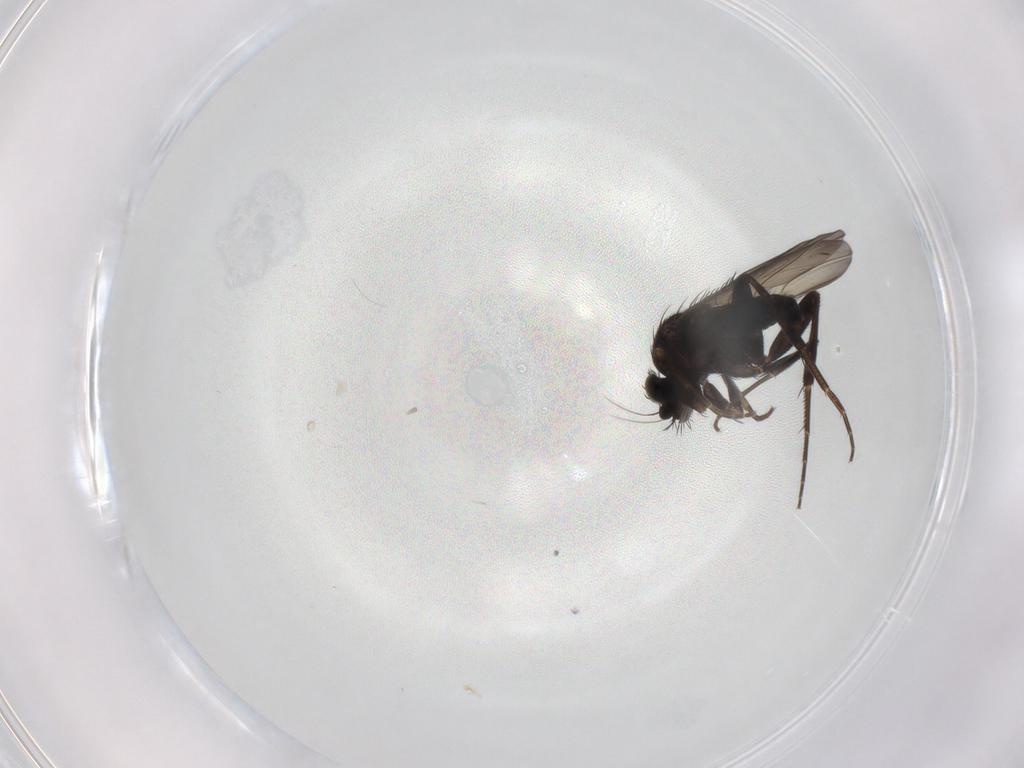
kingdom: Animalia
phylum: Arthropoda
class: Insecta
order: Diptera
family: Phoridae
